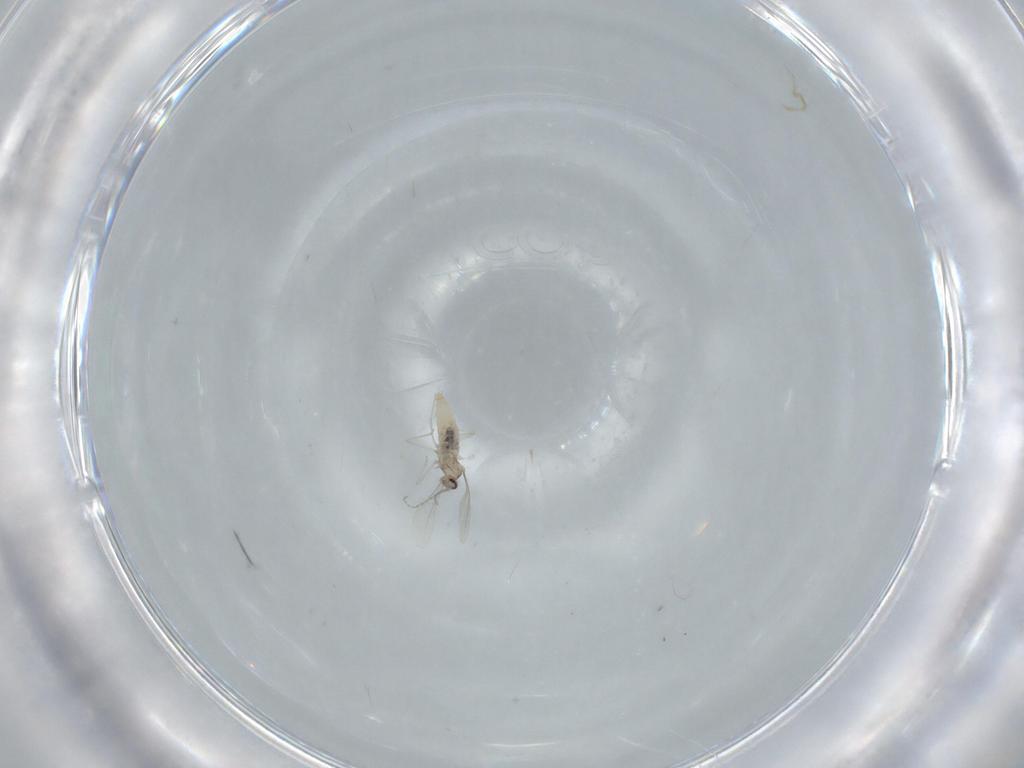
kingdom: Animalia
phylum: Arthropoda
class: Insecta
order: Diptera
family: Cecidomyiidae
